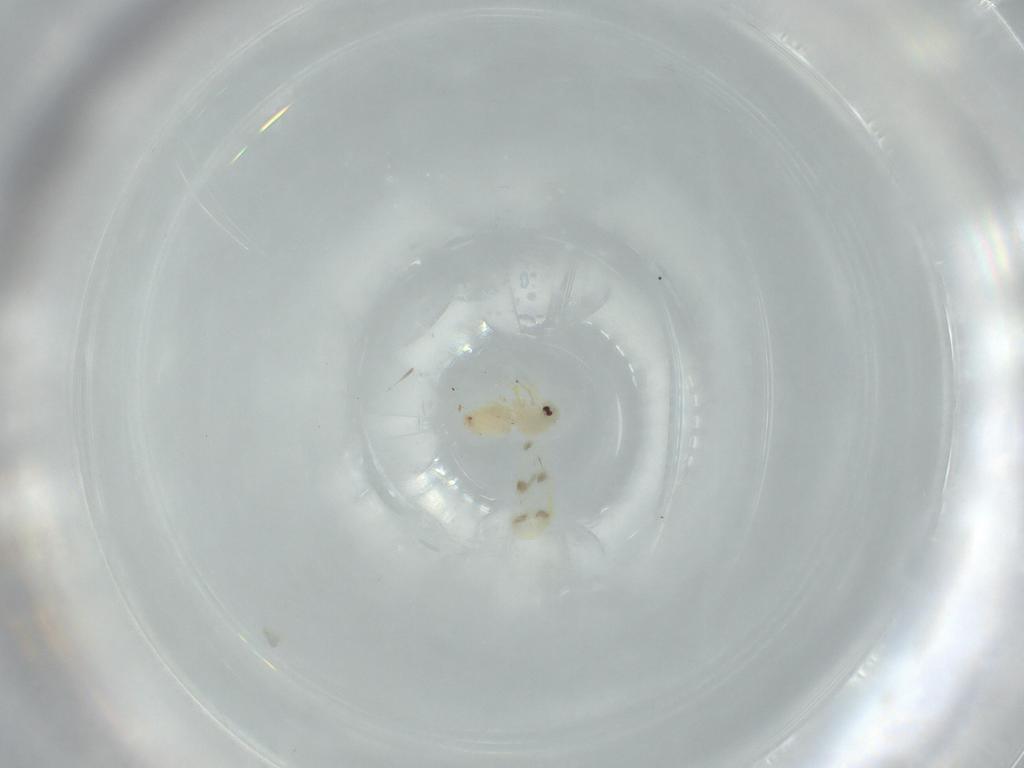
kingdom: Animalia
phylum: Arthropoda
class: Insecta
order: Hemiptera
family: Aleyrodidae
